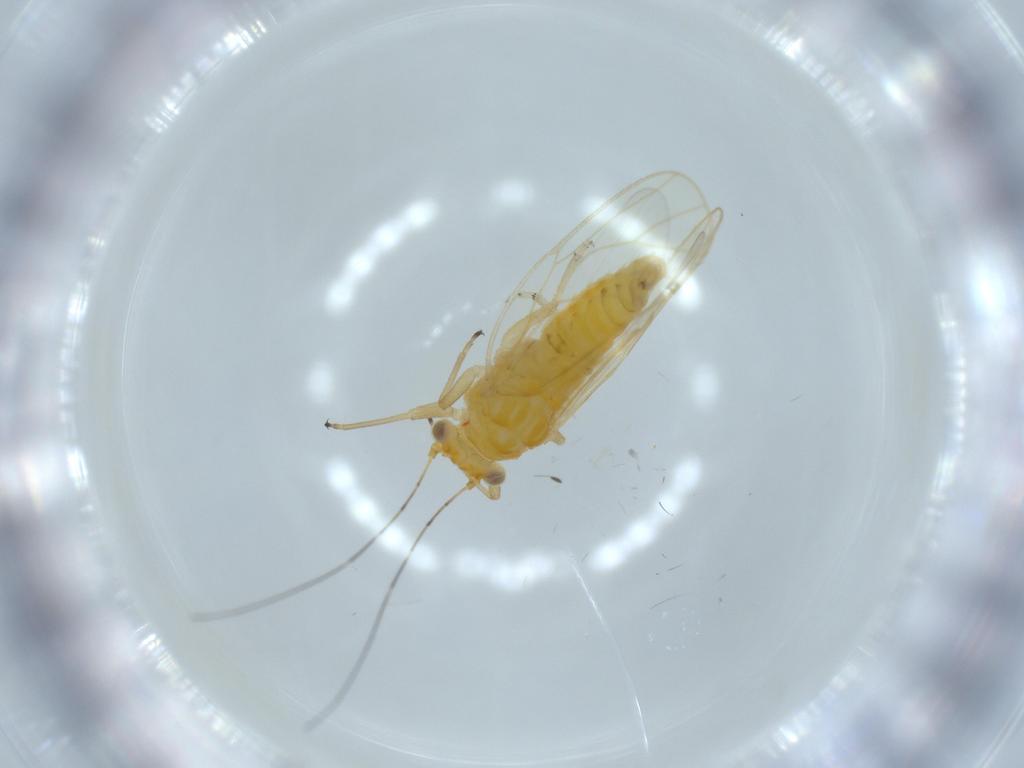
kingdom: Animalia
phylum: Arthropoda
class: Insecta
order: Hemiptera
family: Psyllidae
